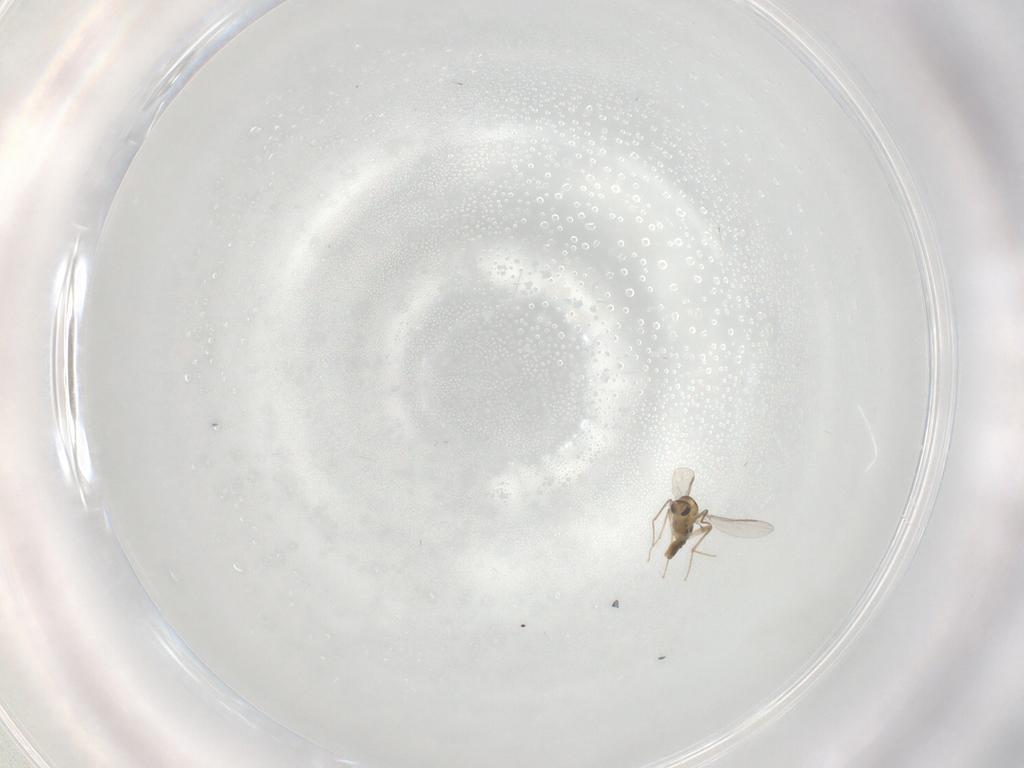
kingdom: Animalia
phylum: Arthropoda
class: Insecta
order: Diptera
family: Chironomidae
